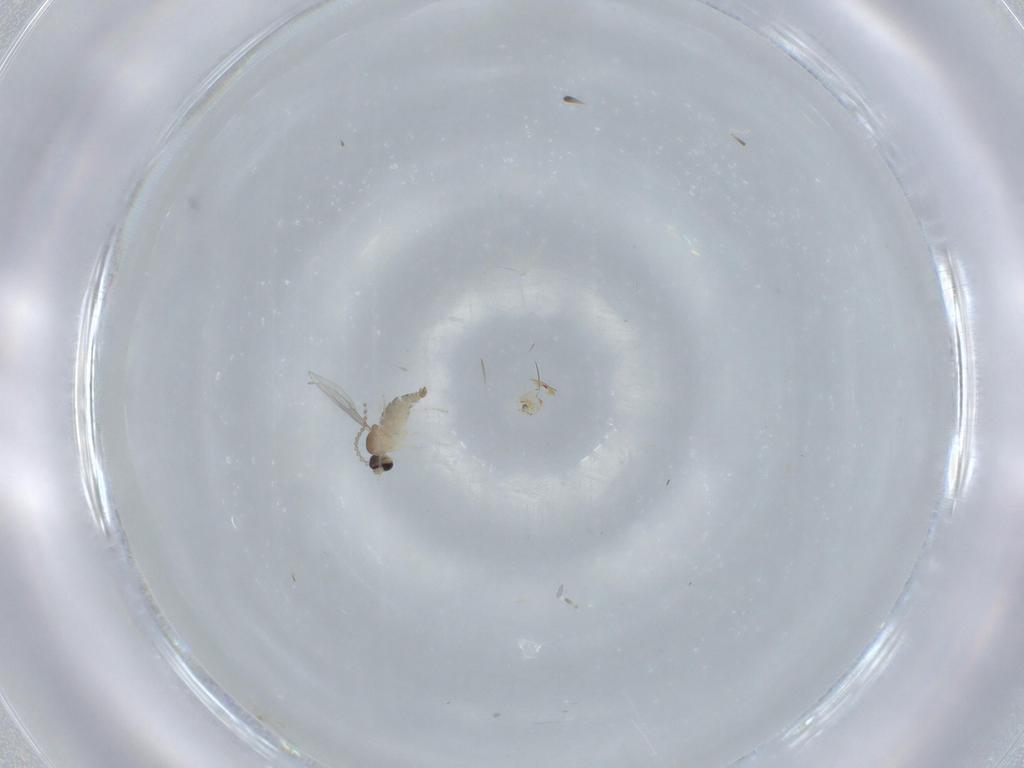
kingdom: Animalia
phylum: Arthropoda
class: Insecta
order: Diptera
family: Cecidomyiidae
